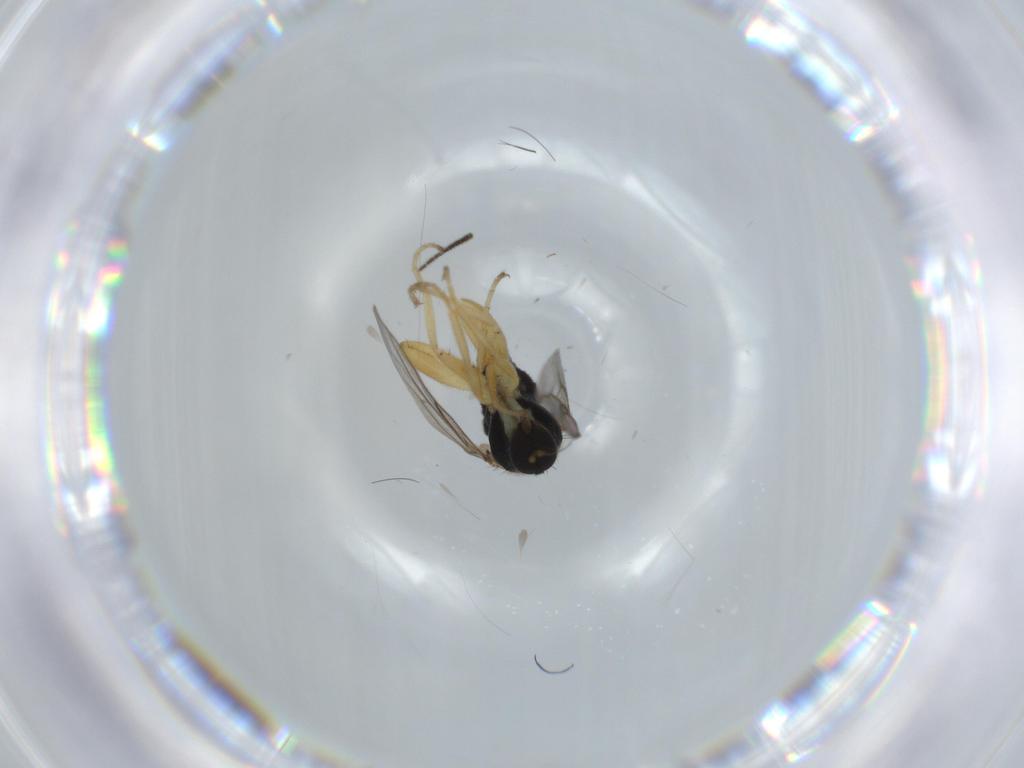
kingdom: Animalia
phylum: Arthropoda
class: Insecta
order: Diptera
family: Hybotidae
